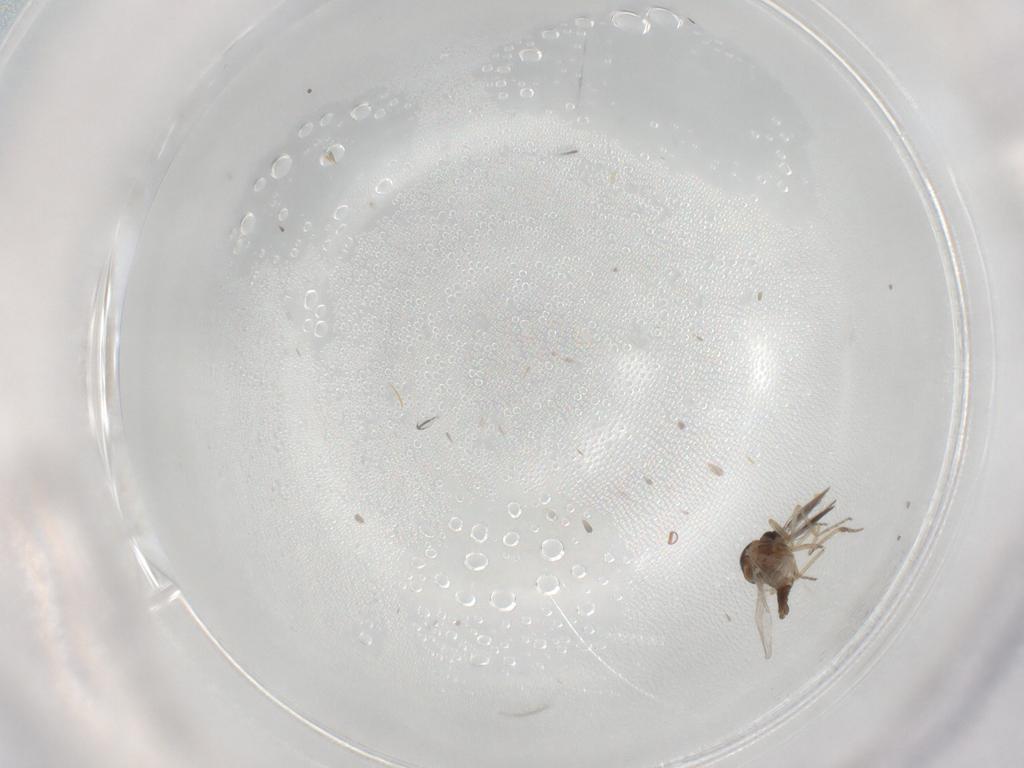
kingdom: Animalia
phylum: Arthropoda
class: Insecta
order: Diptera
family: Ceratopogonidae
